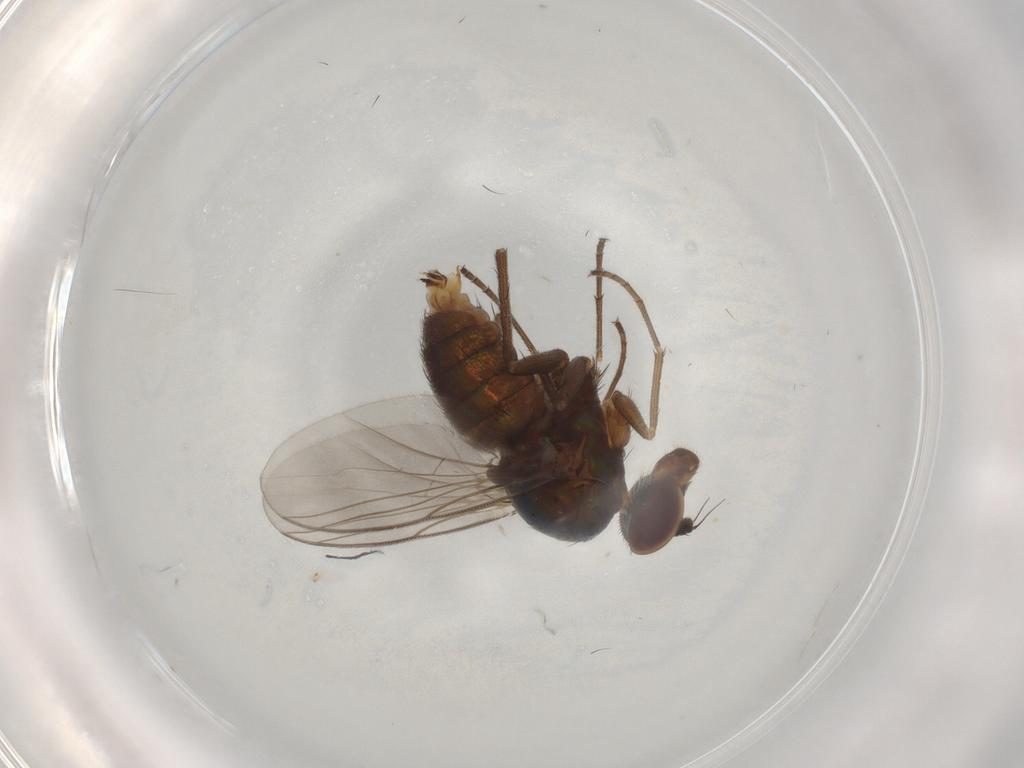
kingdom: Animalia
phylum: Arthropoda
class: Insecta
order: Diptera
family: Dolichopodidae
